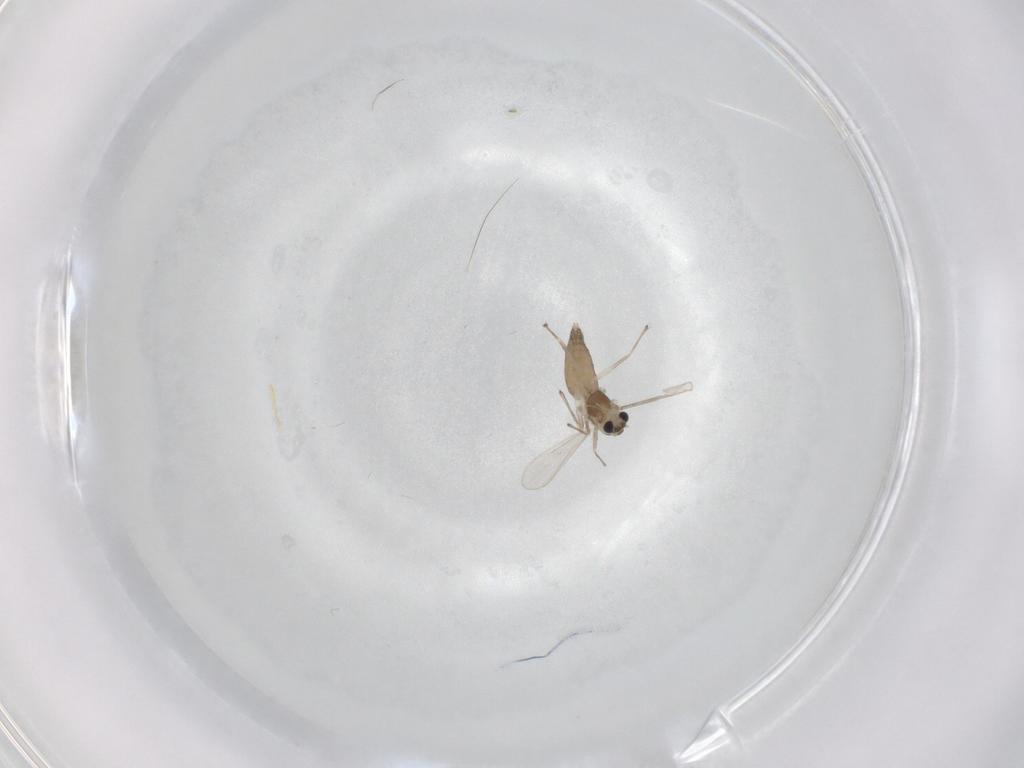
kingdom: Animalia
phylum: Arthropoda
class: Insecta
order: Diptera
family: Chironomidae
